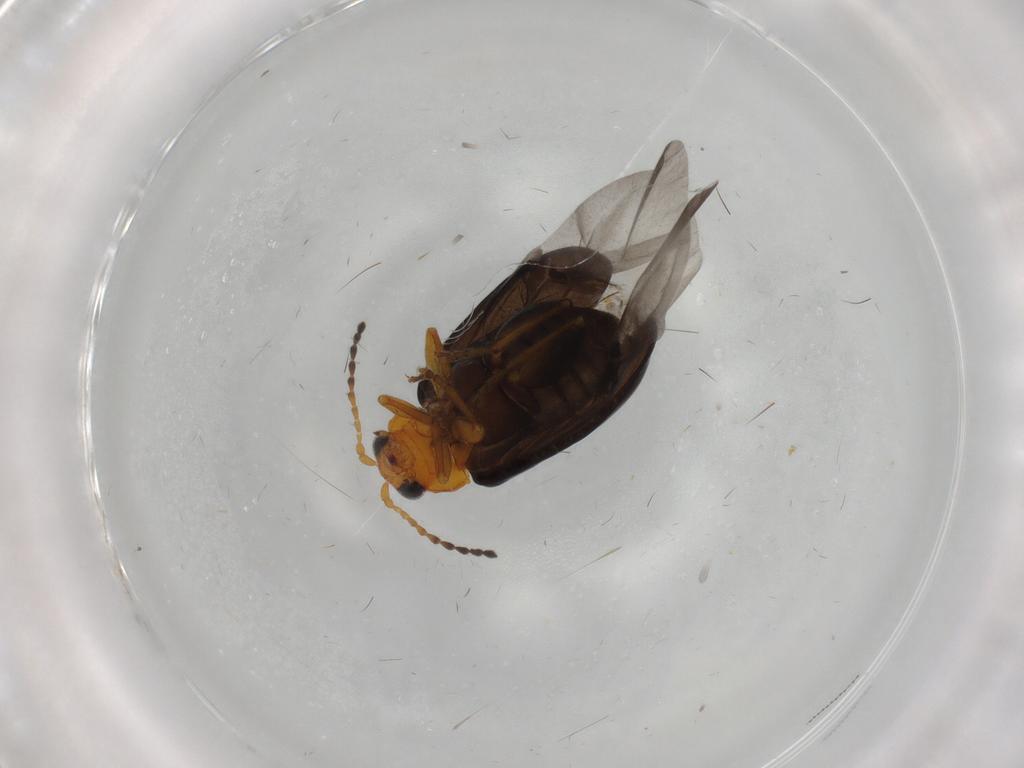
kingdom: Animalia
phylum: Arthropoda
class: Insecta
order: Coleoptera
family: Chrysomelidae
